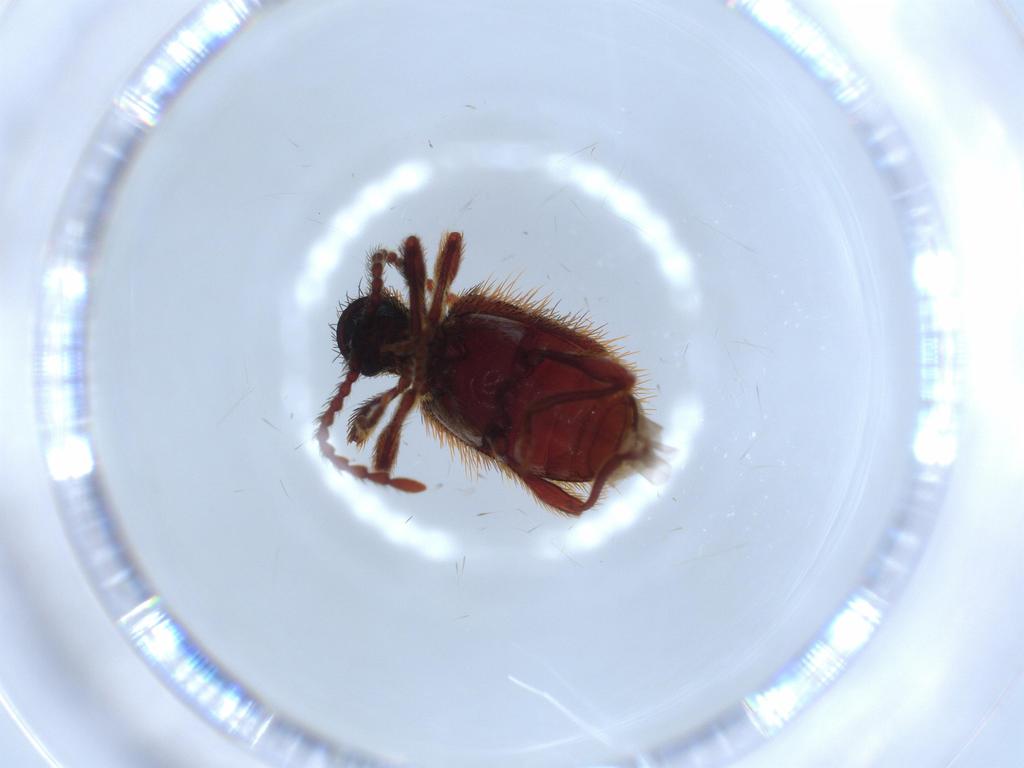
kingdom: Animalia
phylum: Arthropoda
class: Insecta
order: Coleoptera
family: Ptinidae
